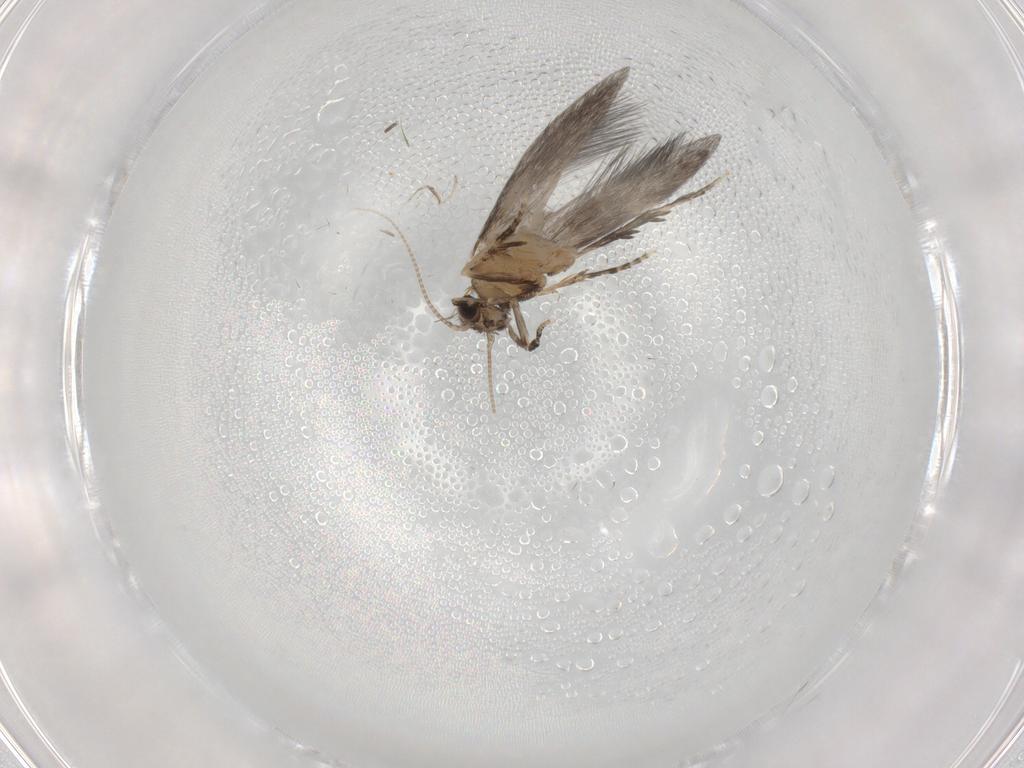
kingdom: Animalia
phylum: Arthropoda
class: Insecta
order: Trichoptera
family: Hydroptilidae
